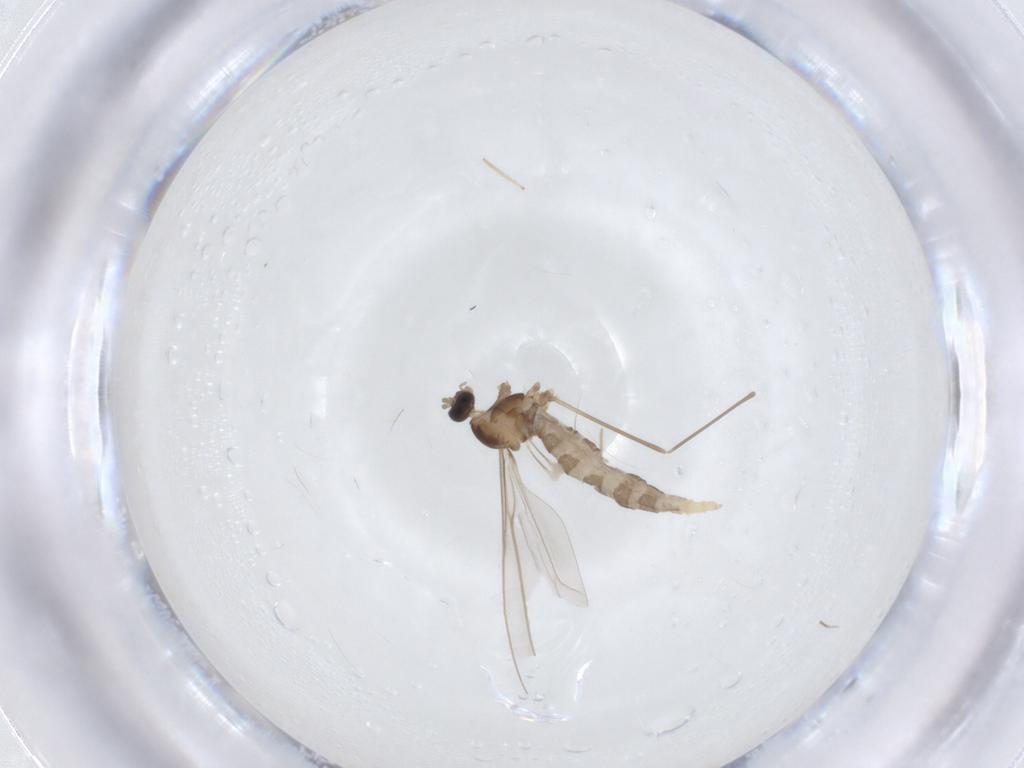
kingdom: Animalia
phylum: Arthropoda
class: Insecta
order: Diptera
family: Cecidomyiidae
